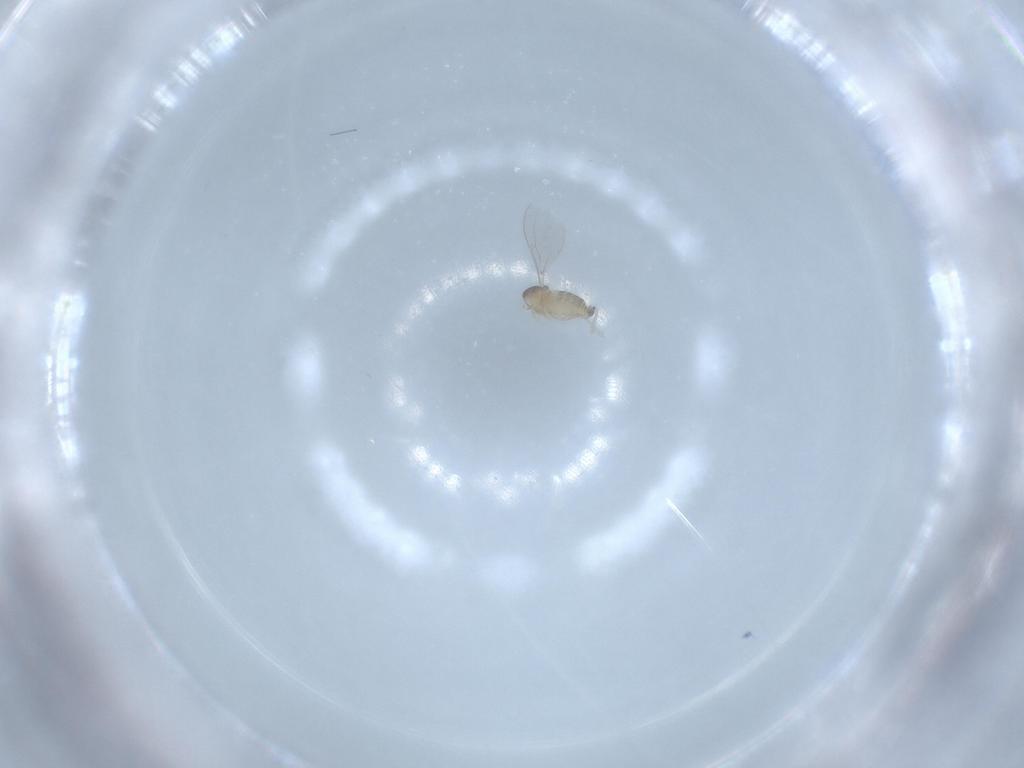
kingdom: Animalia
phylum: Arthropoda
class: Insecta
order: Diptera
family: Cecidomyiidae
